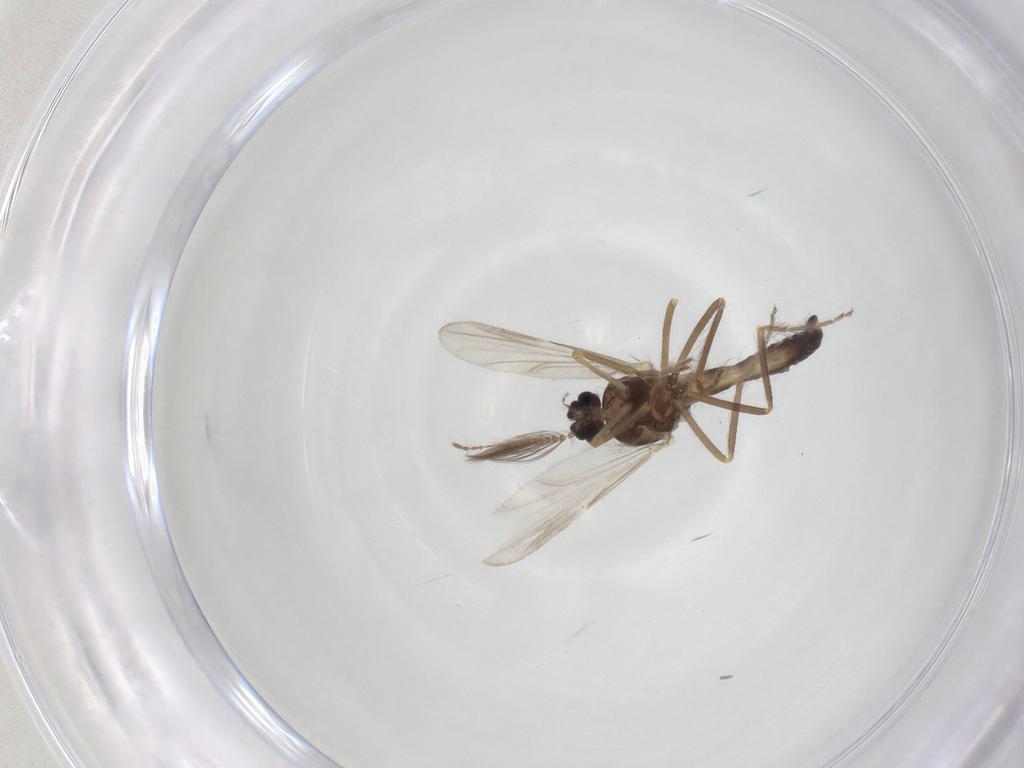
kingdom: Animalia
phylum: Arthropoda
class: Insecta
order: Diptera
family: Ceratopogonidae
